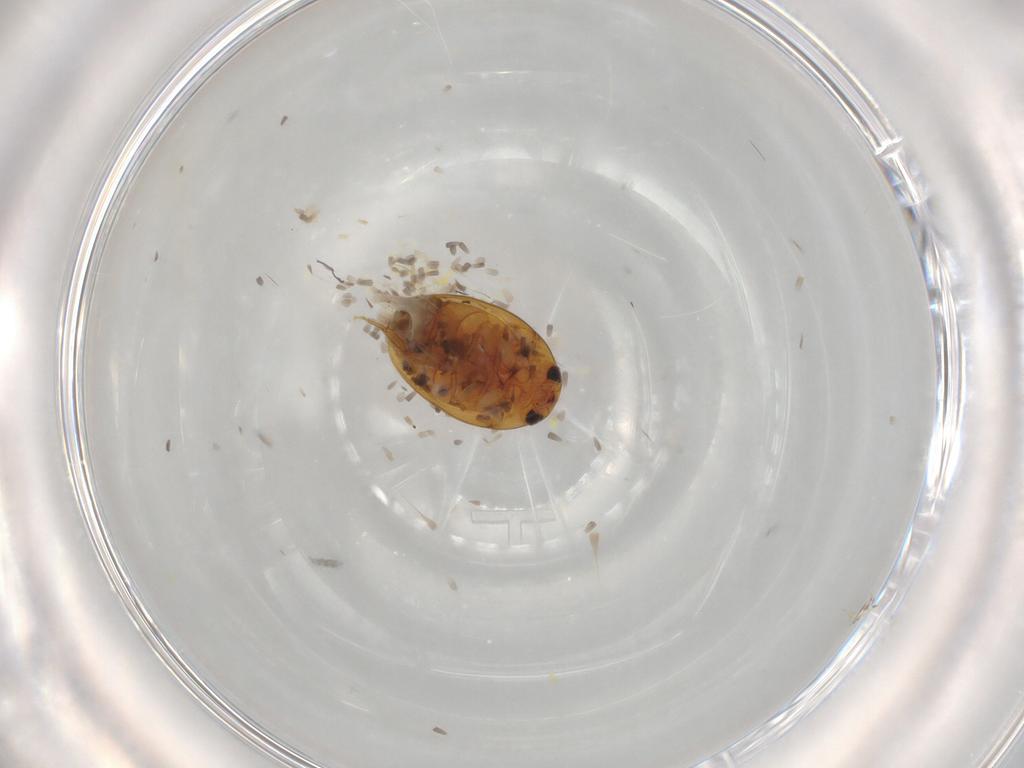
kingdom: Animalia
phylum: Arthropoda
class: Insecta
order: Coleoptera
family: Phalacridae
